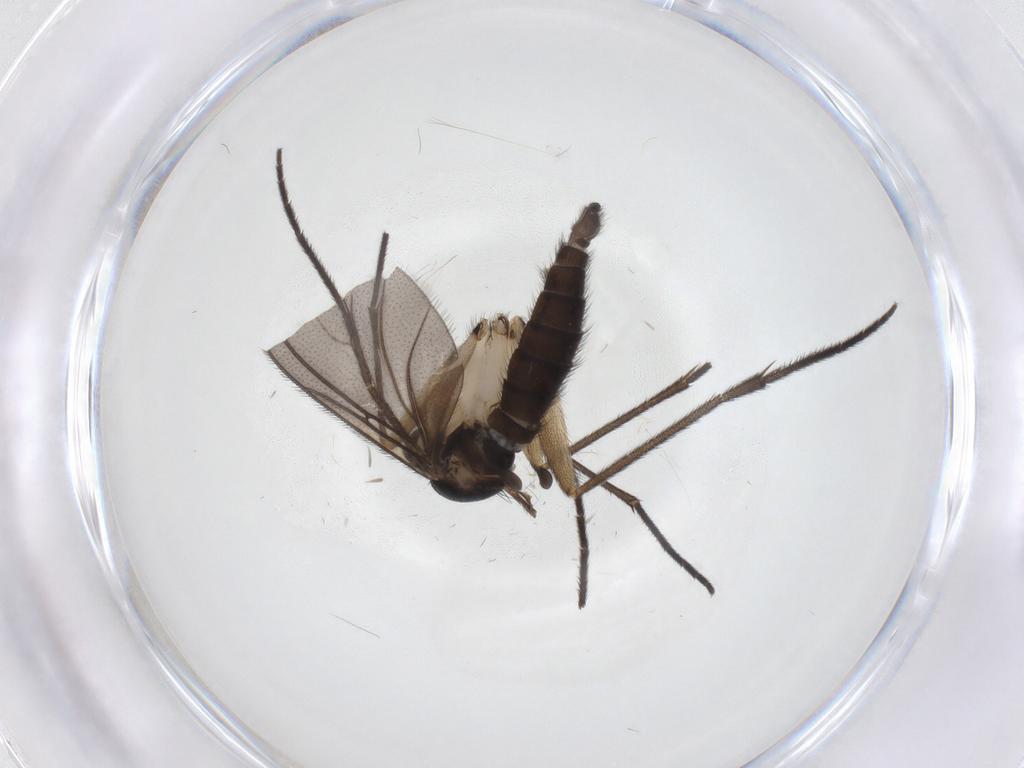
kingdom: Animalia
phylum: Arthropoda
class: Insecta
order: Diptera
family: Sciaridae
